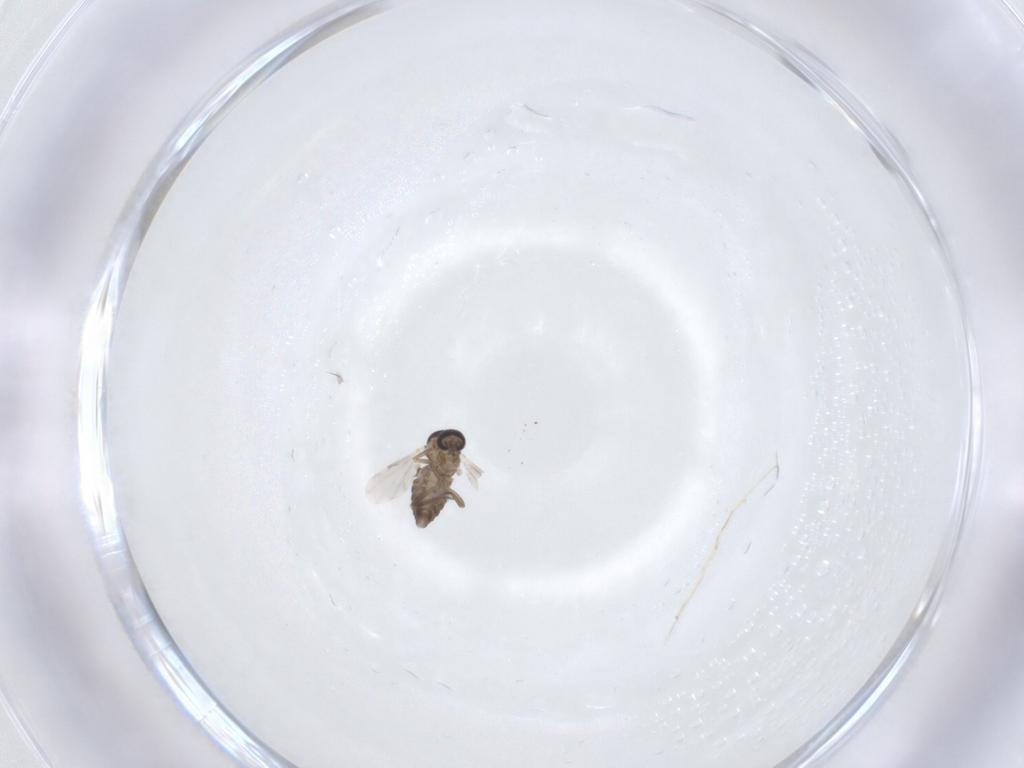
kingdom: Animalia
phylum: Arthropoda
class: Insecta
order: Diptera
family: Ceratopogonidae
